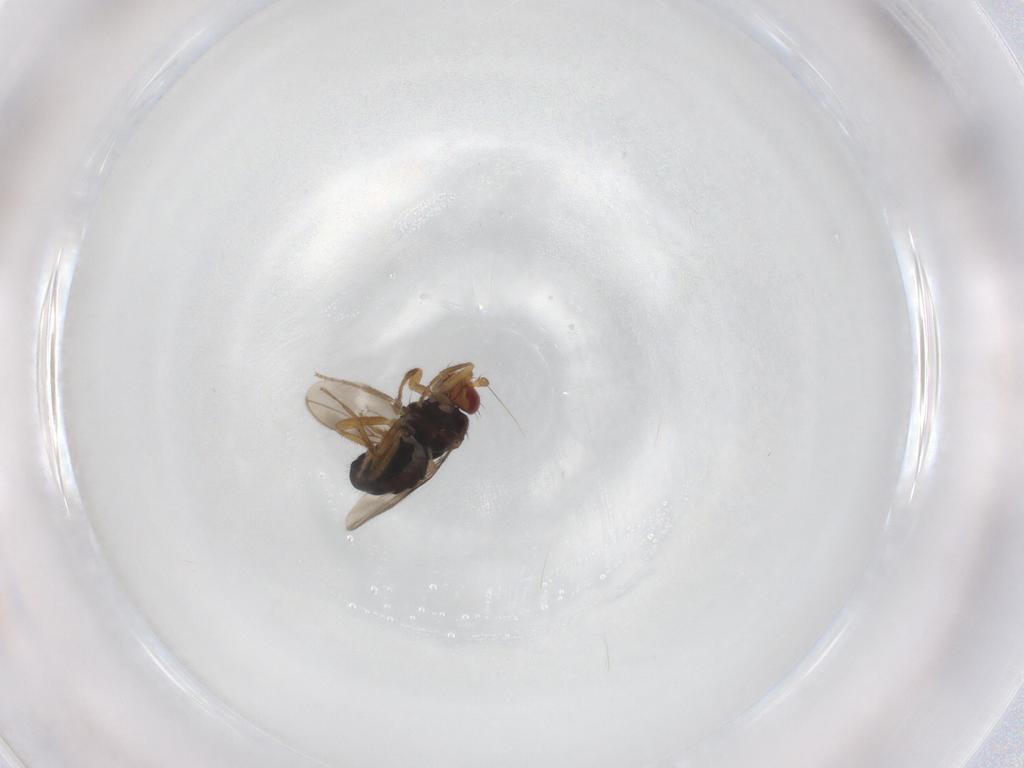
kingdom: Animalia
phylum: Arthropoda
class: Insecta
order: Diptera
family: Sphaeroceridae
